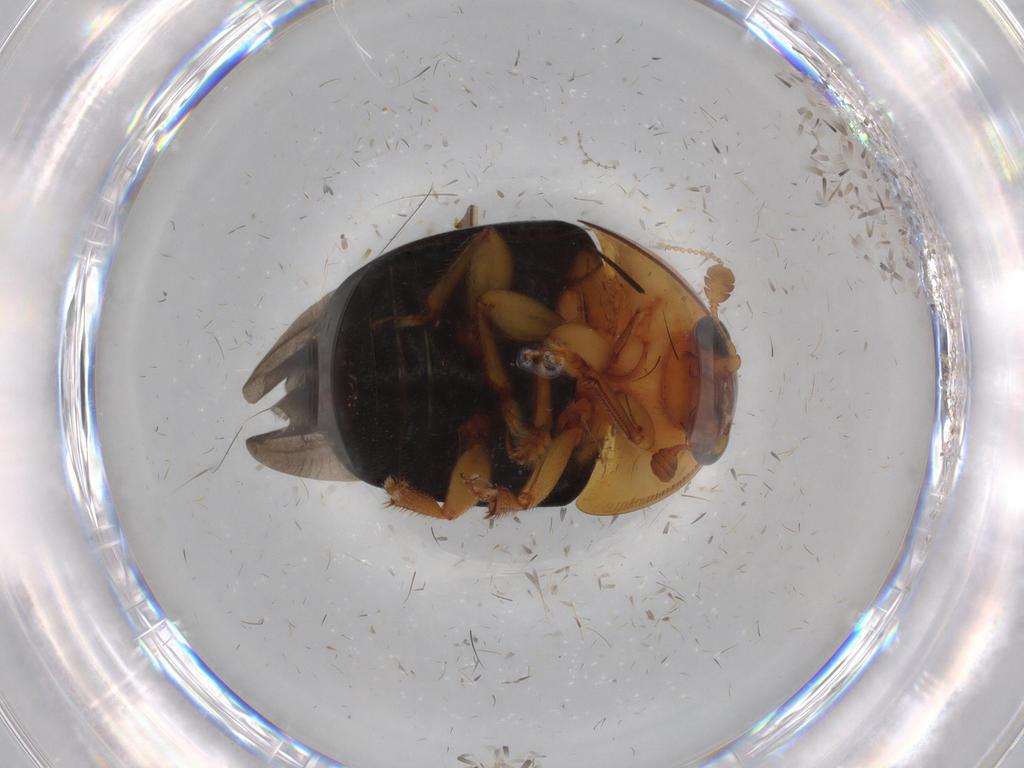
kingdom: Animalia
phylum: Arthropoda
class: Insecta
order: Coleoptera
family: Nitidulidae
